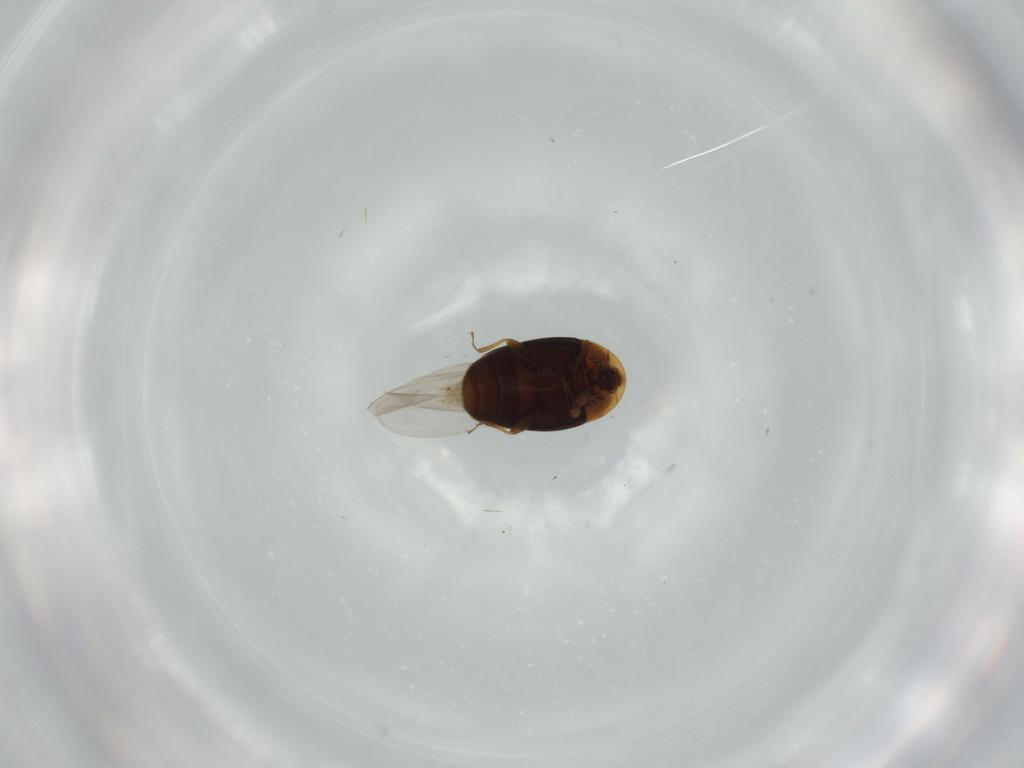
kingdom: Animalia
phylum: Arthropoda
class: Insecta
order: Coleoptera
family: Corylophidae
